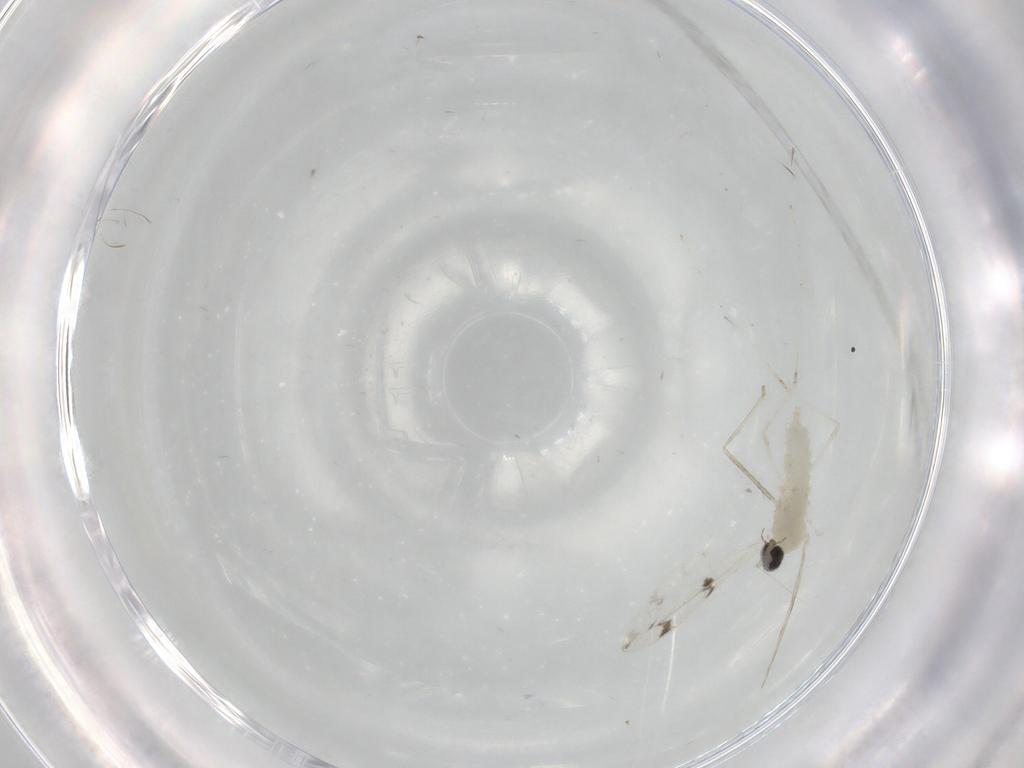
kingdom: Animalia
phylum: Arthropoda
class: Insecta
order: Diptera
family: Cecidomyiidae
